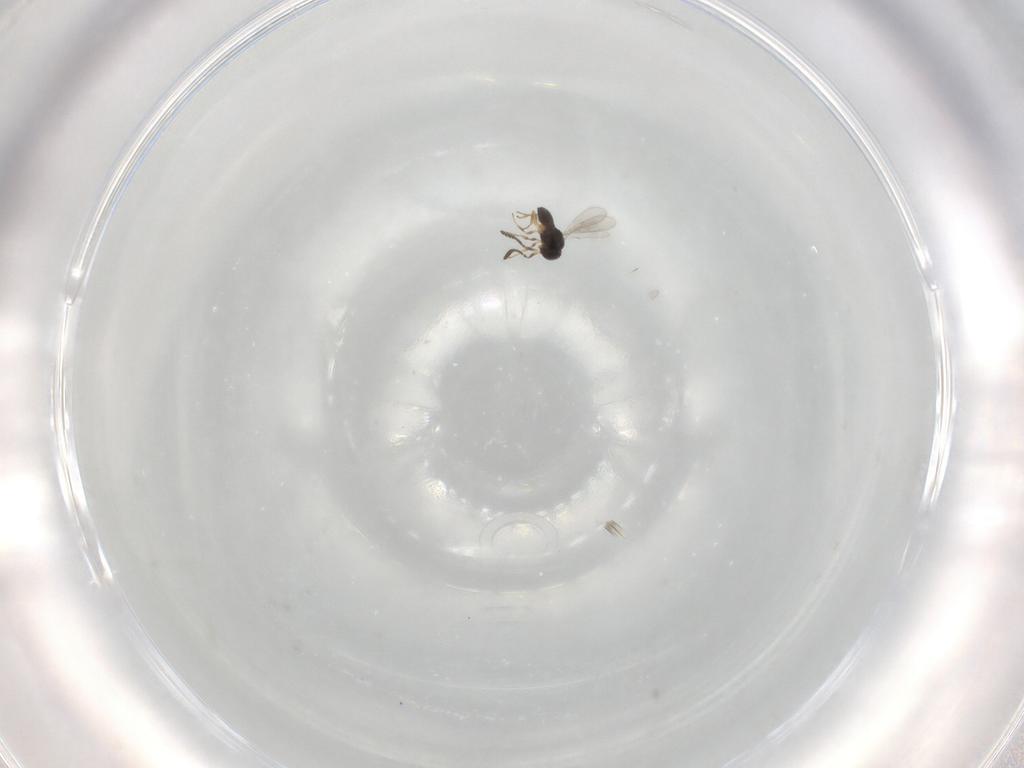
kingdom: Animalia
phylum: Arthropoda
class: Insecta
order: Hymenoptera
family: Scelionidae
